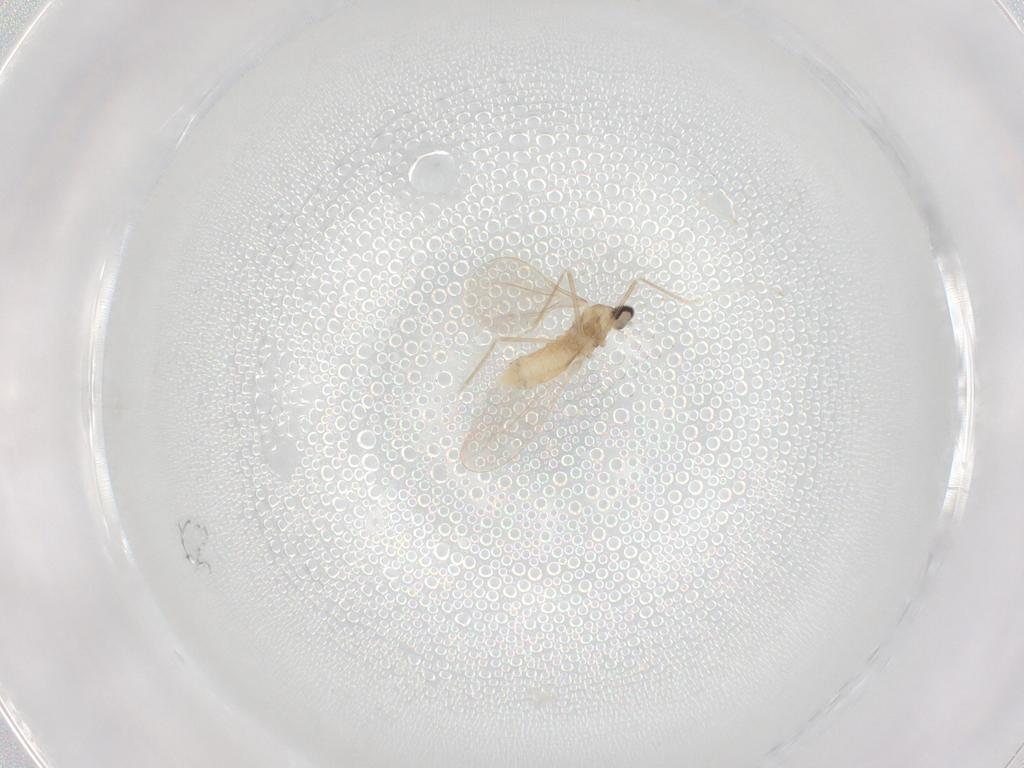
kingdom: Animalia
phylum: Arthropoda
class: Insecta
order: Diptera
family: Cecidomyiidae
